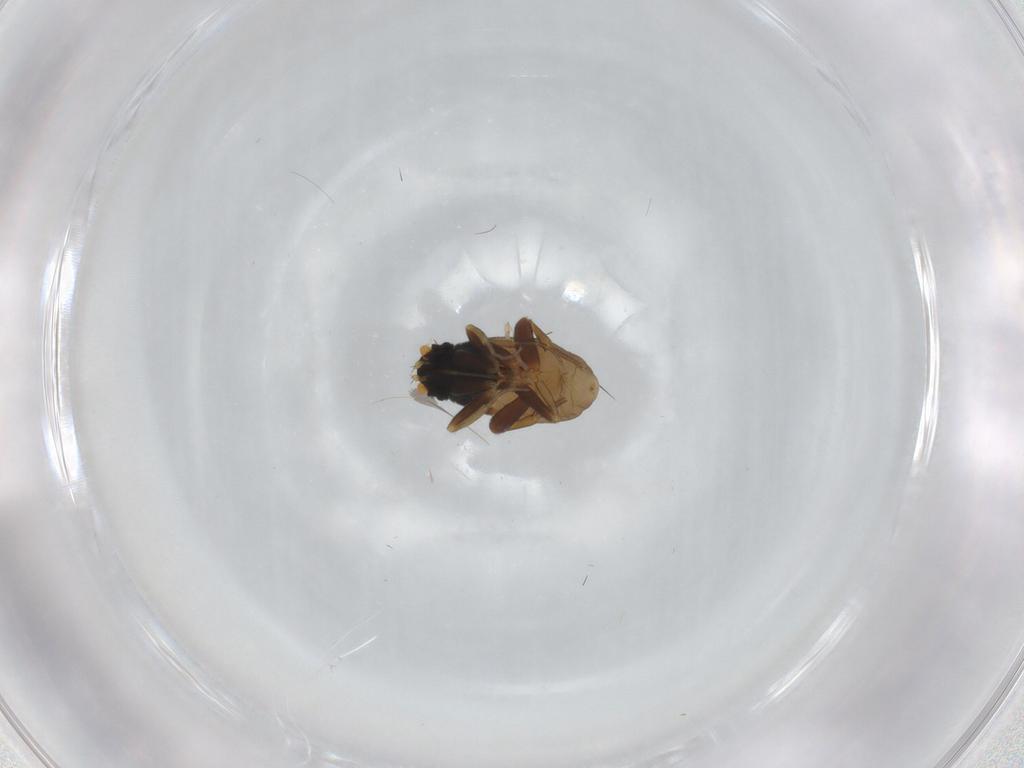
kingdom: Animalia
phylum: Arthropoda
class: Insecta
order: Diptera
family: Phoridae
